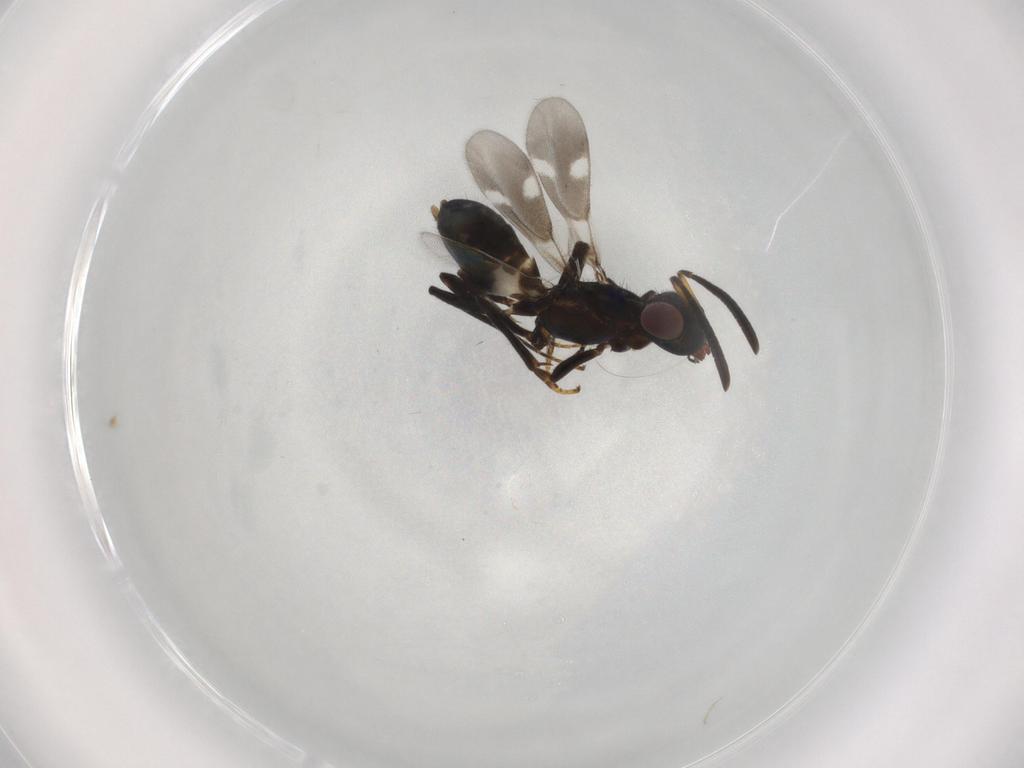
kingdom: Animalia
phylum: Arthropoda
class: Insecta
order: Hymenoptera
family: Eupelmidae
